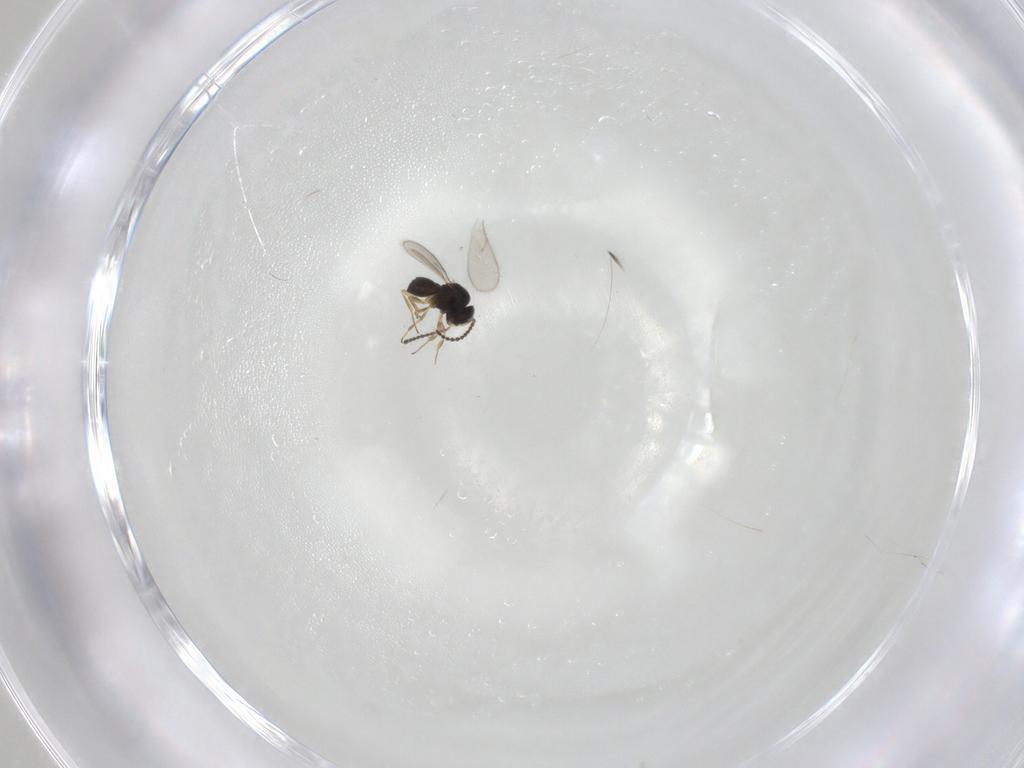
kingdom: Animalia
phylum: Arthropoda
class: Insecta
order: Hymenoptera
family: Scelionidae
